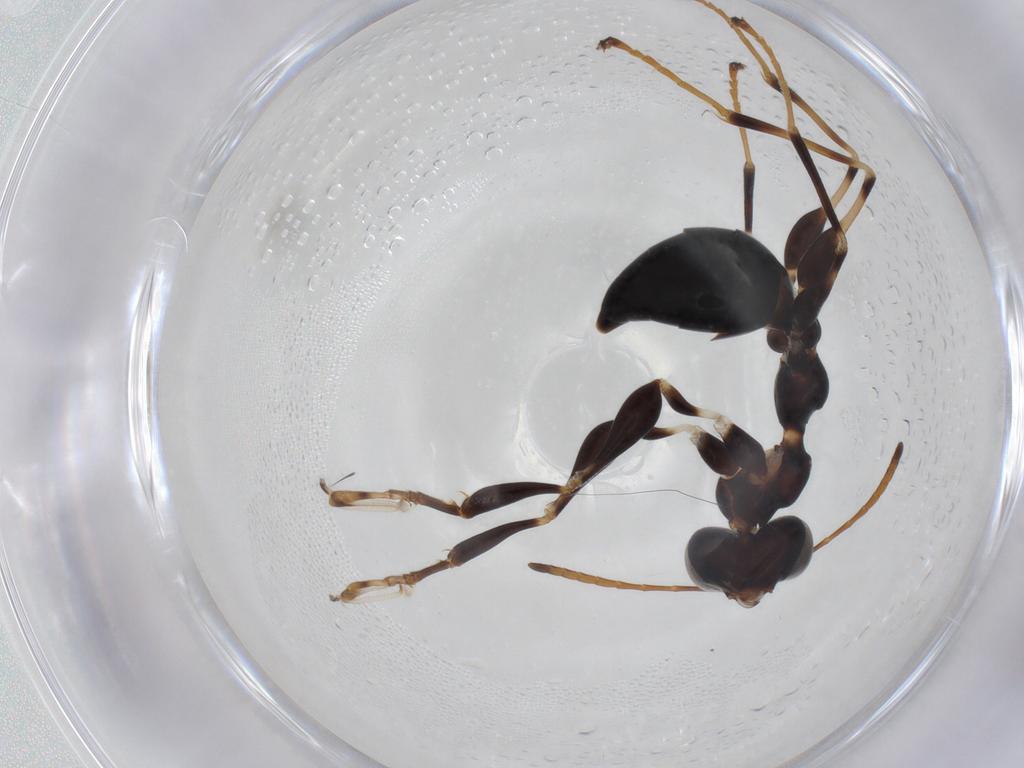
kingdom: Animalia
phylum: Arthropoda
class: Insecta
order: Hymenoptera
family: Dryinidae
